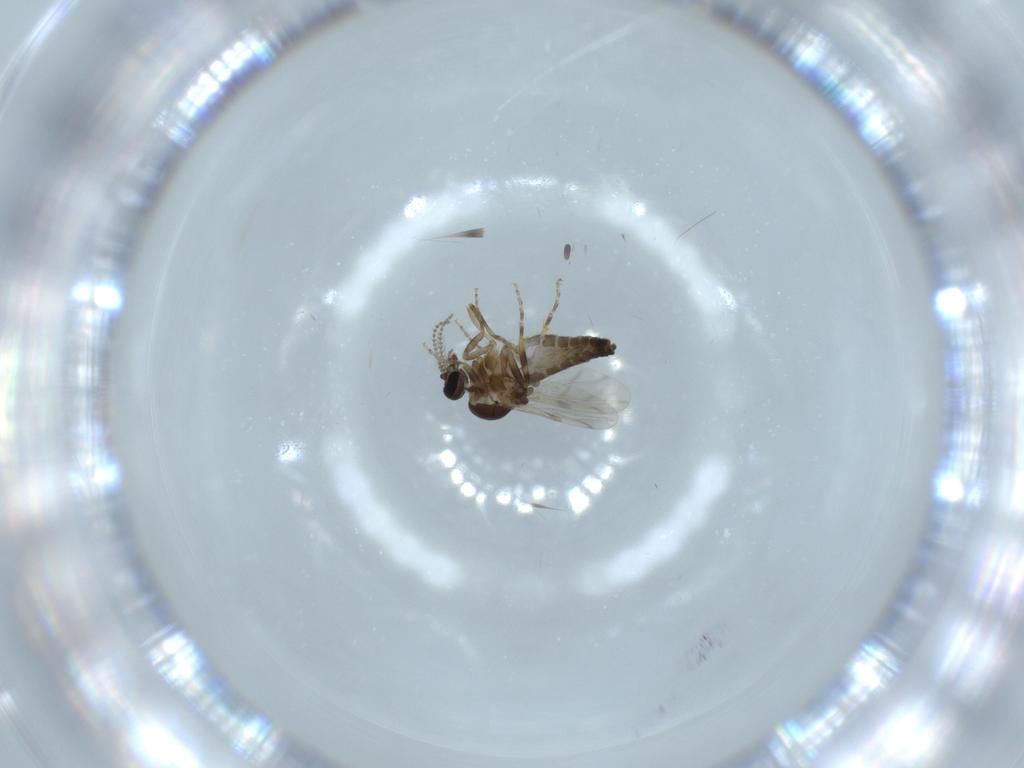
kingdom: Animalia
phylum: Arthropoda
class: Insecta
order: Diptera
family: Ceratopogonidae
